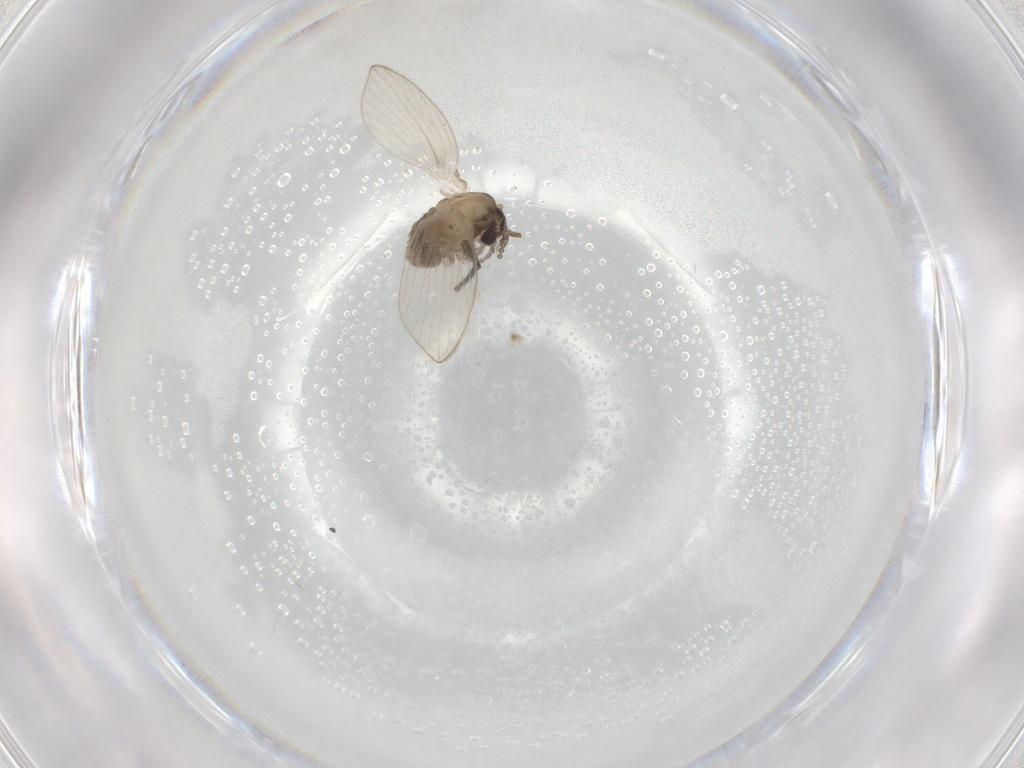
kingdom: Animalia
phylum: Arthropoda
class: Insecta
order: Diptera
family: Psychodidae
